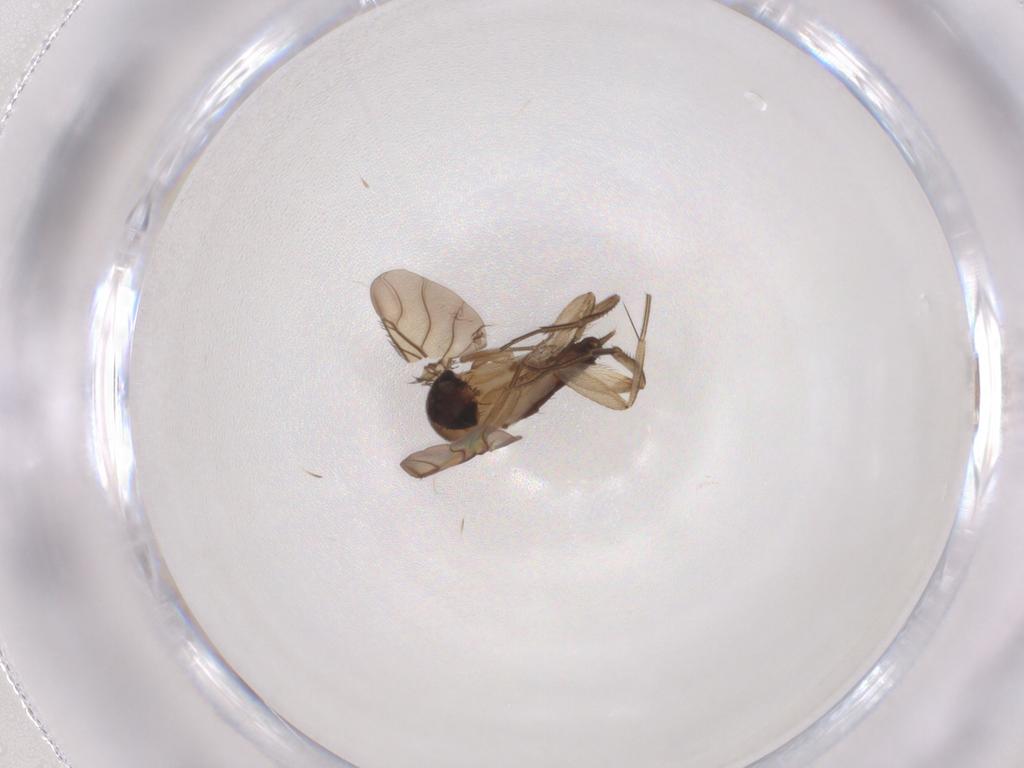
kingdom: Animalia
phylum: Arthropoda
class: Insecta
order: Diptera
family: Phoridae
